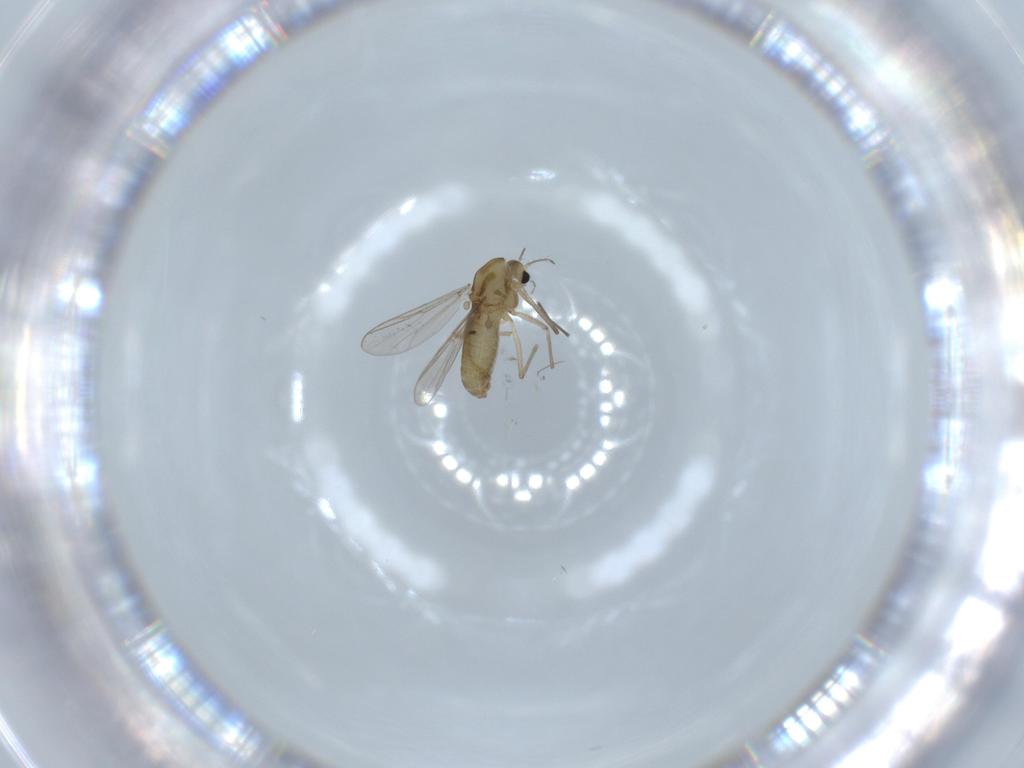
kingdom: Animalia
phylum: Arthropoda
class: Insecta
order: Diptera
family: Chironomidae
